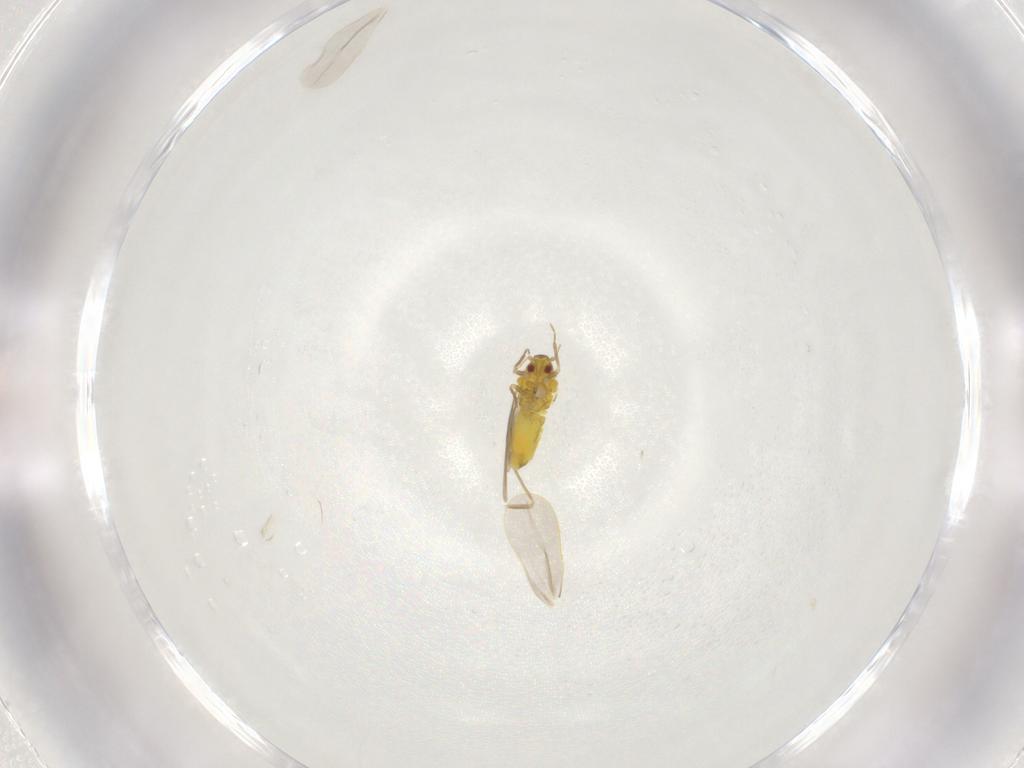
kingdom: Animalia
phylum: Arthropoda
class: Insecta
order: Hemiptera
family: Aleyrodidae
